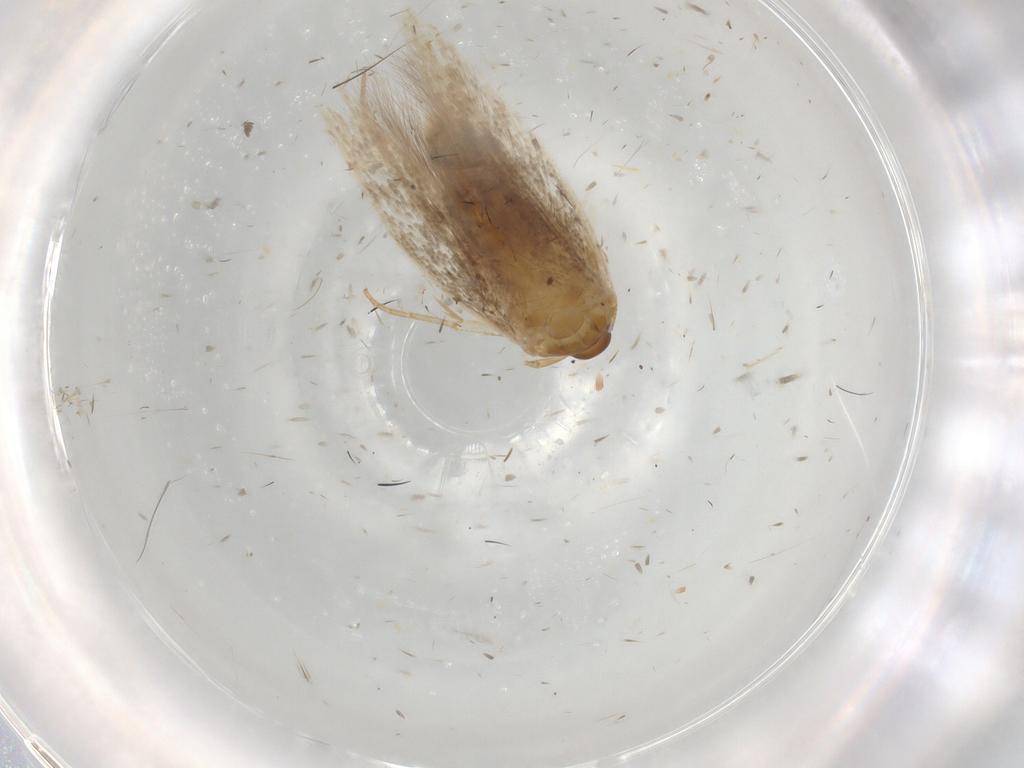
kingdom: Animalia
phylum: Arthropoda
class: Insecta
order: Lepidoptera
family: Cosmopterigidae
